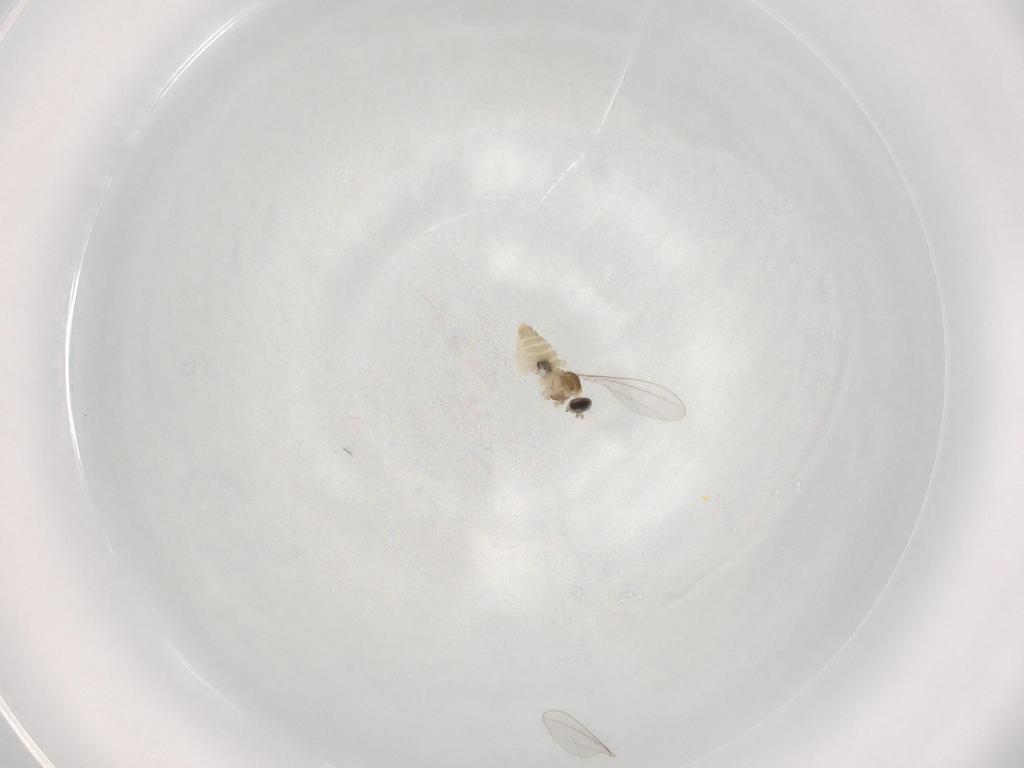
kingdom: Animalia
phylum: Arthropoda
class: Insecta
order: Diptera
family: Cecidomyiidae
